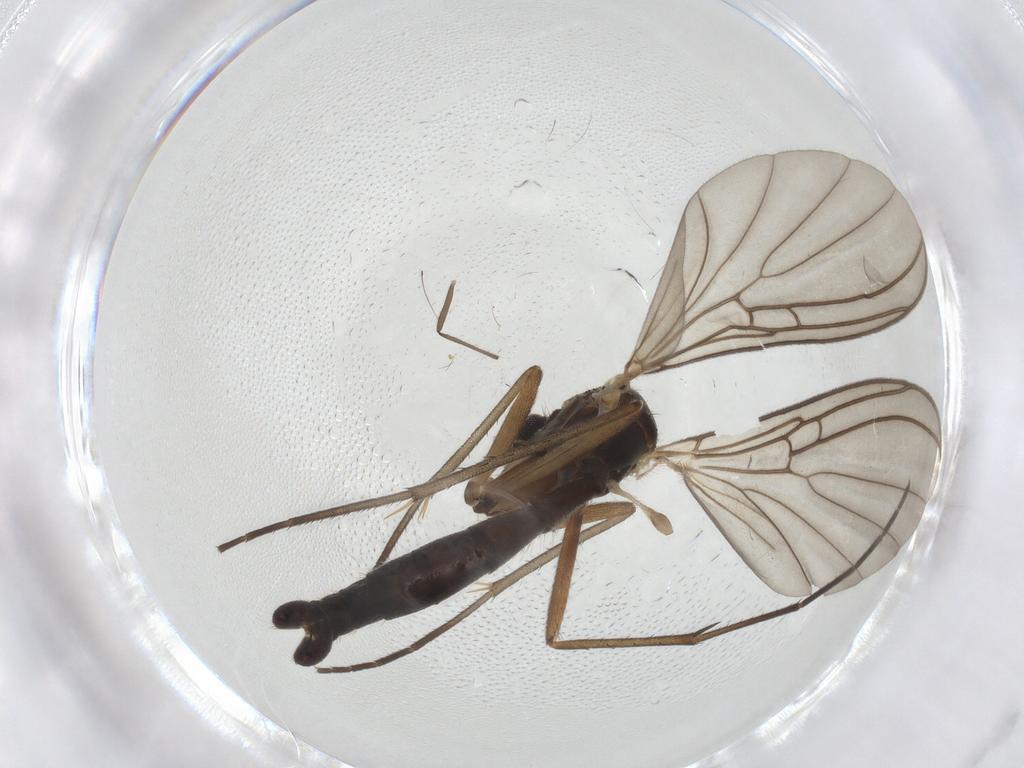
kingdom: Animalia
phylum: Arthropoda
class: Insecta
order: Diptera
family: Mycetophilidae
